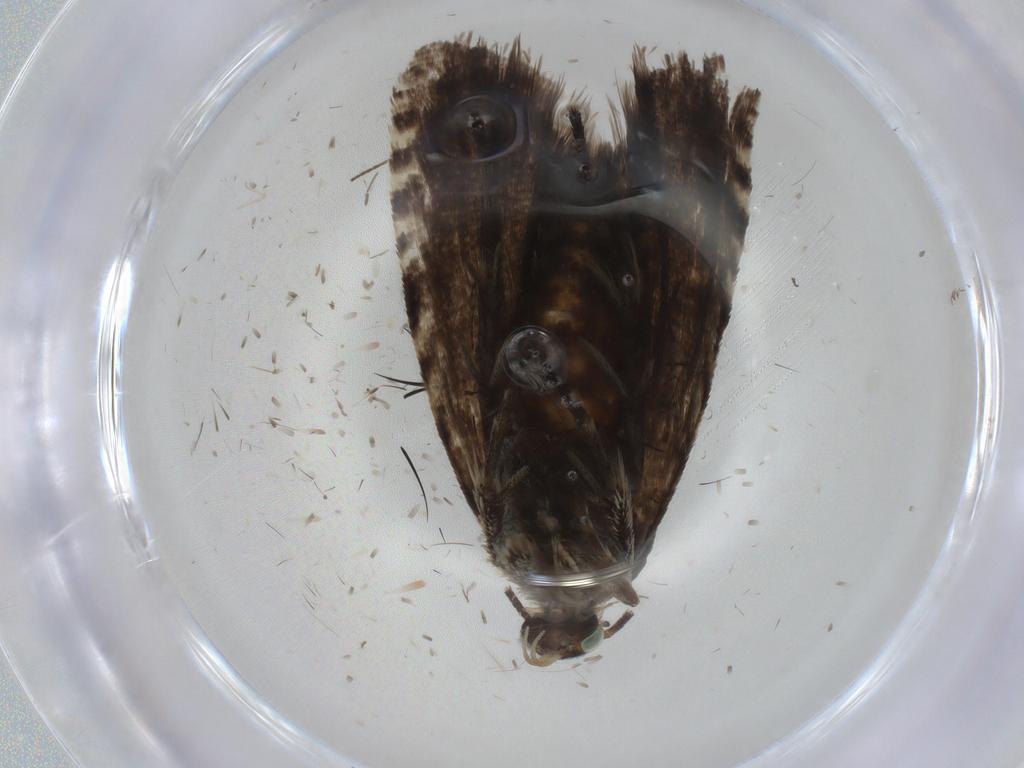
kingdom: Animalia
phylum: Arthropoda
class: Insecta
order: Lepidoptera
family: Tortricidae
